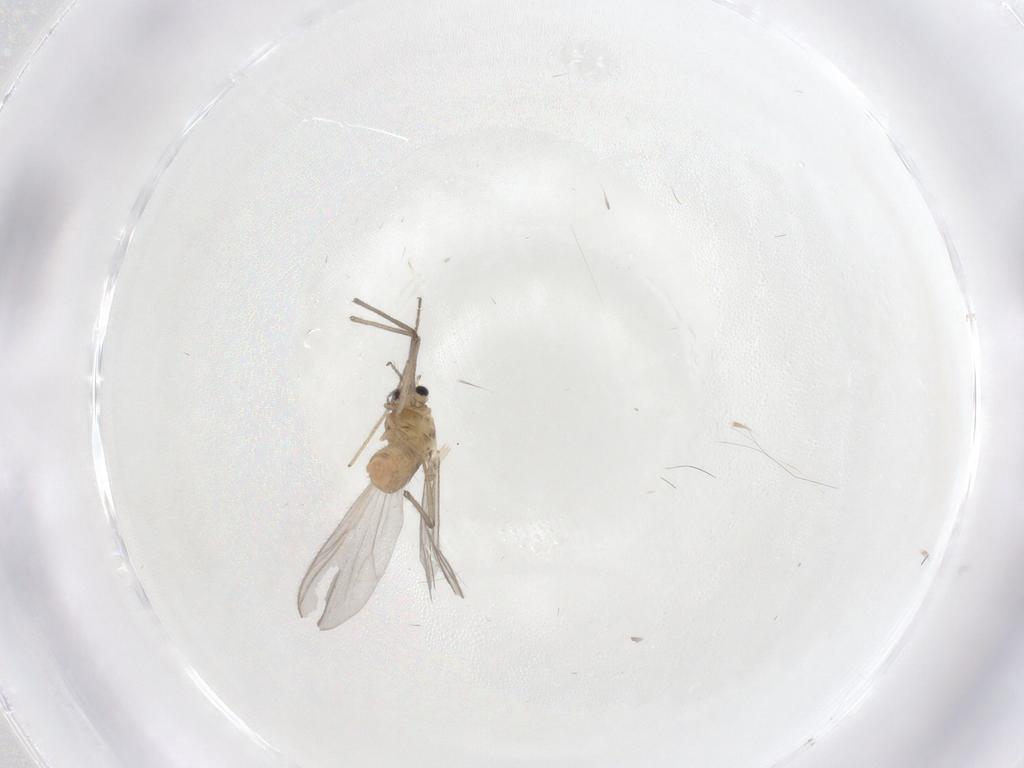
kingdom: Animalia
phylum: Arthropoda
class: Insecta
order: Diptera
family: Chironomidae
